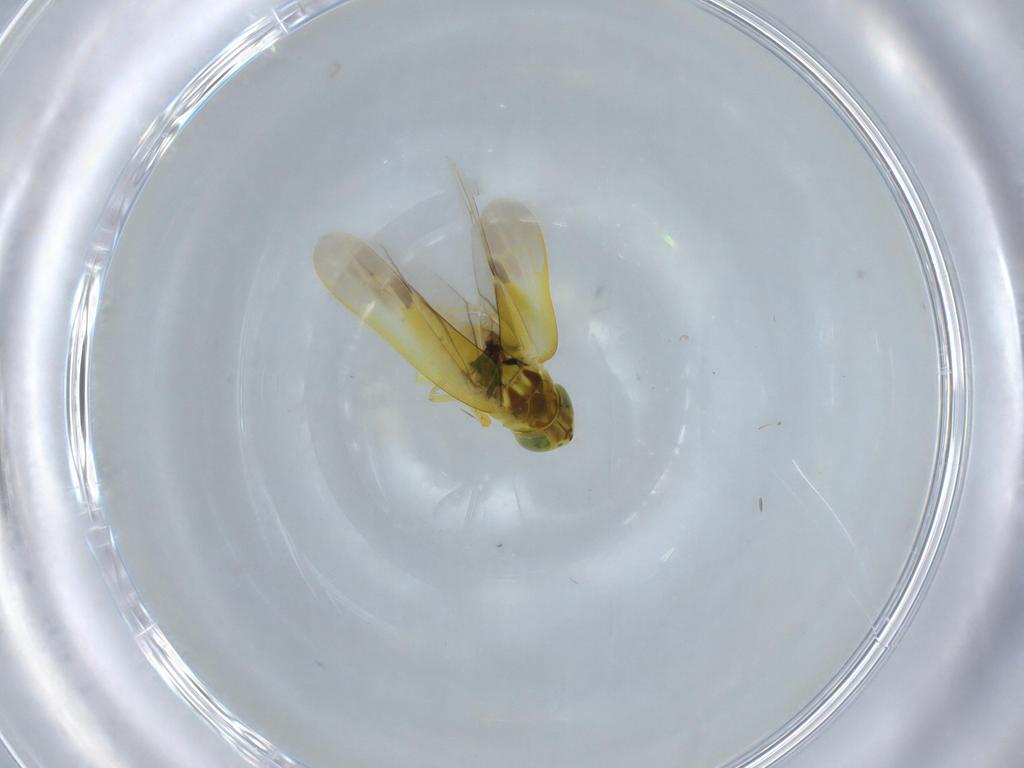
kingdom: Animalia
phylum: Arthropoda
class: Insecta
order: Hemiptera
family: Cicadellidae
